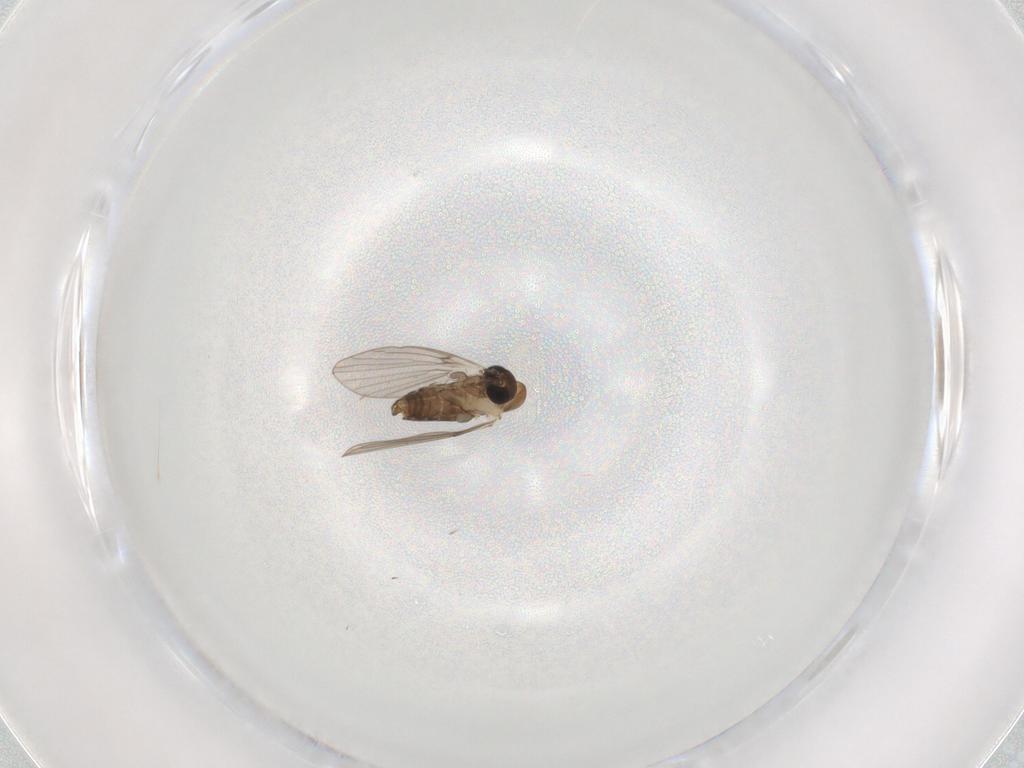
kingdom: Animalia
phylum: Arthropoda
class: Insecta
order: Diptera
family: Psychodidae
